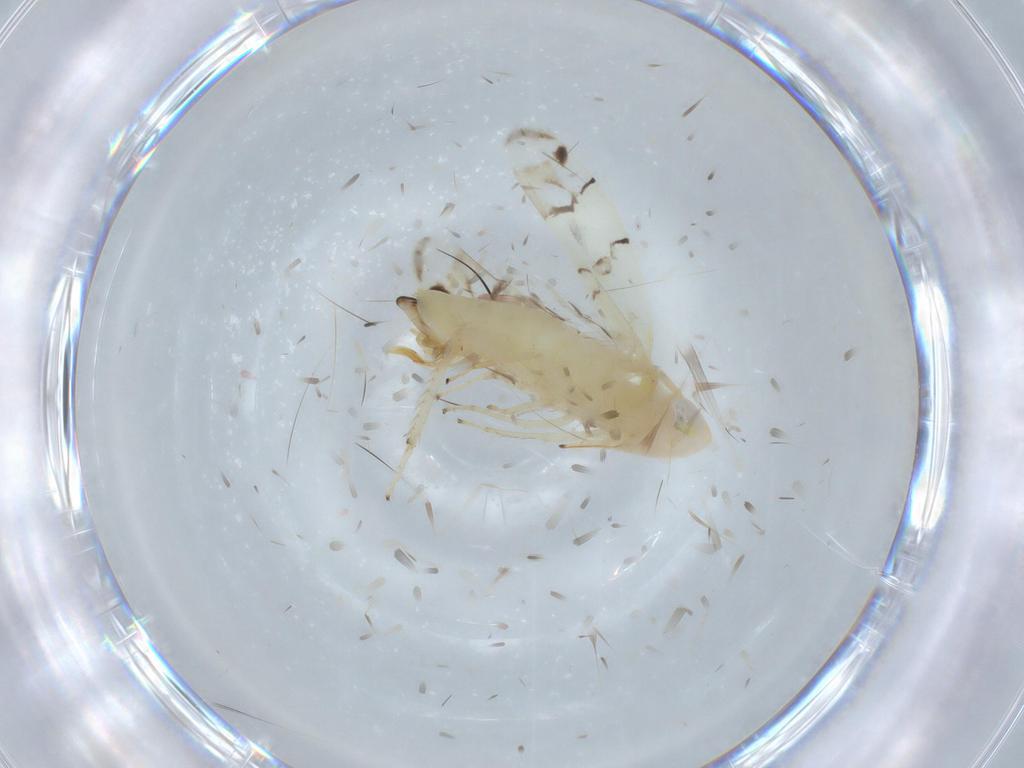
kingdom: Animalia
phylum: Arthropoda
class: Insecta
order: Hemiptera
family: Cicadellidae
